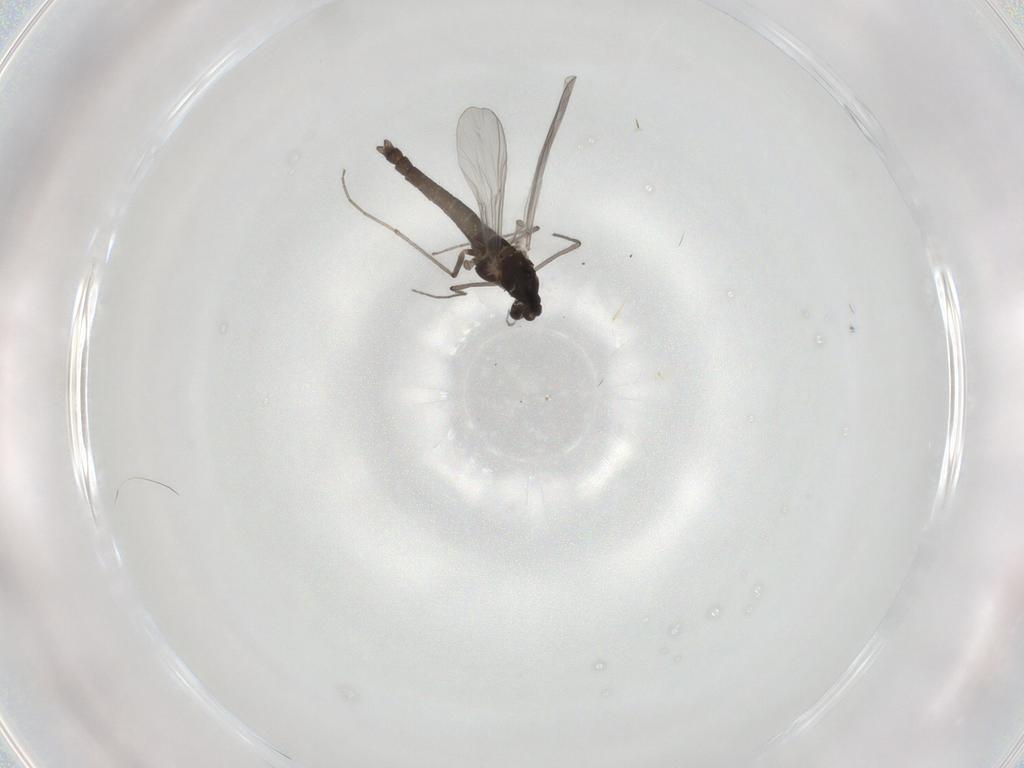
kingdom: Animalia
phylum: Arthropoda
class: Insecta
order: Diptera
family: Chironomidae
